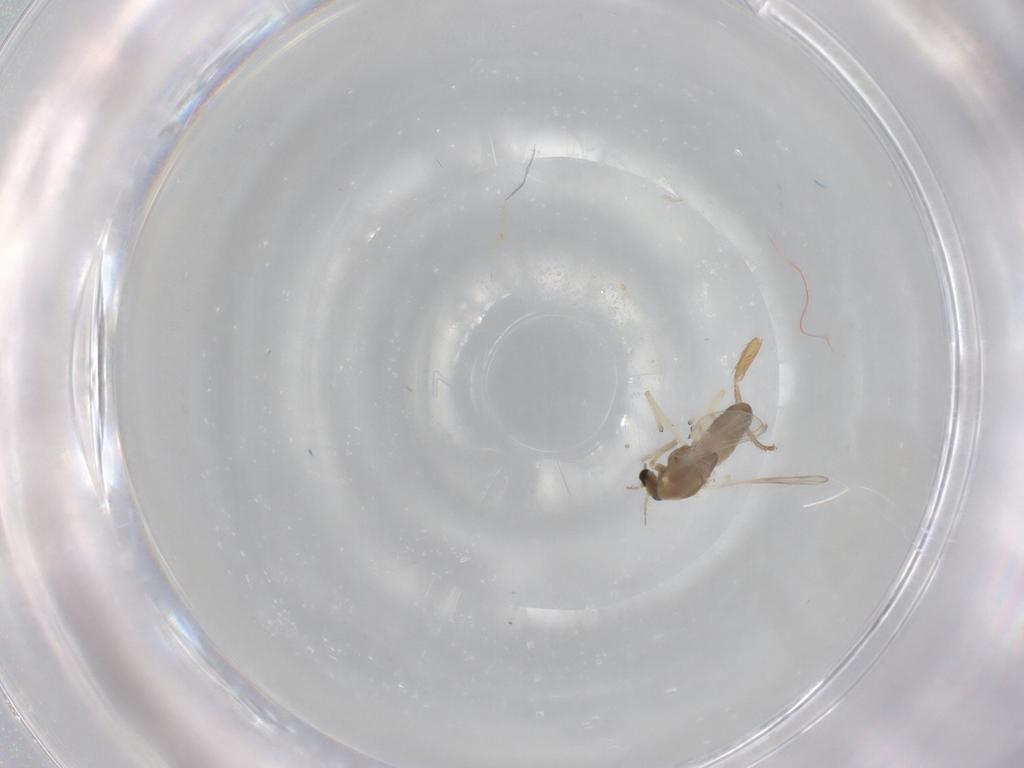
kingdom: Animalia
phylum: Arthropoda
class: Insecta
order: Diptera
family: Drosophilidae
